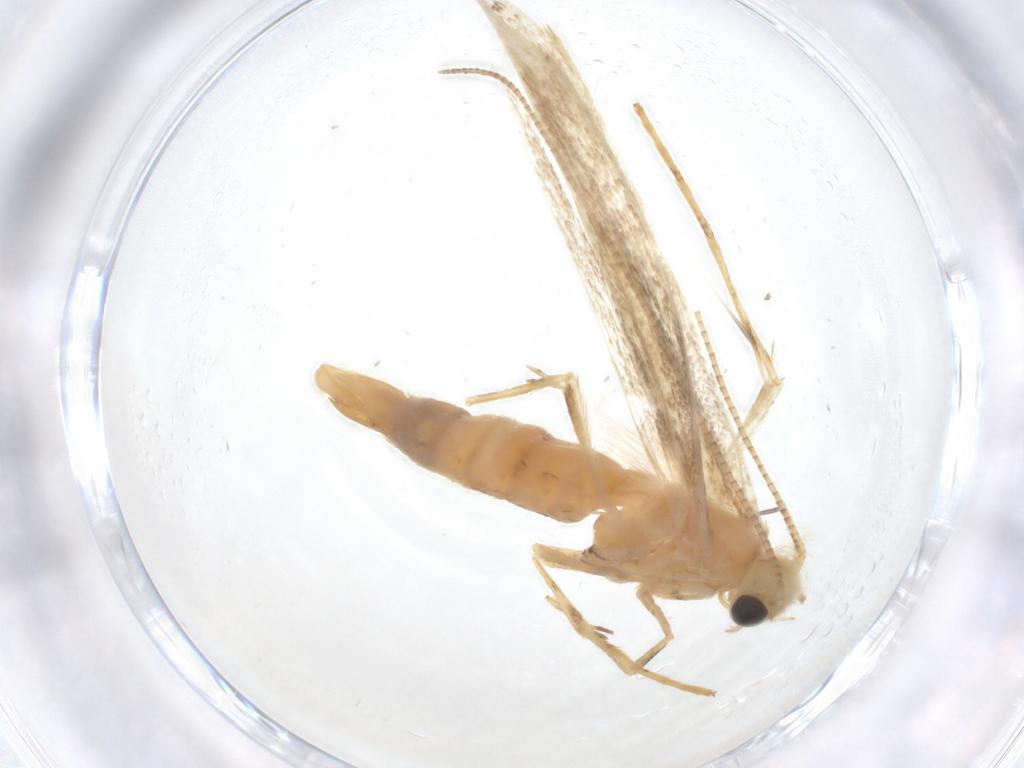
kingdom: Animalia
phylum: Arthropoda
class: Insecta
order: Lepidoptera
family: Gracillariidae
